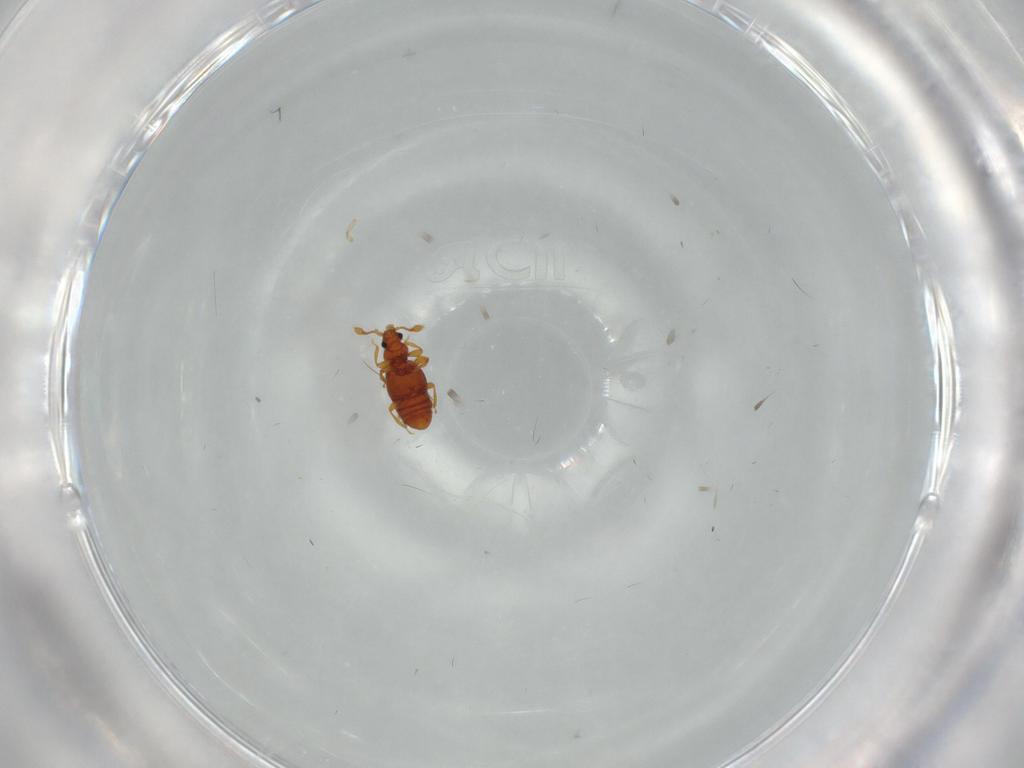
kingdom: Animalia
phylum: Arthropoda
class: Insecta
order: Coleoptera
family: Staphylinidae
